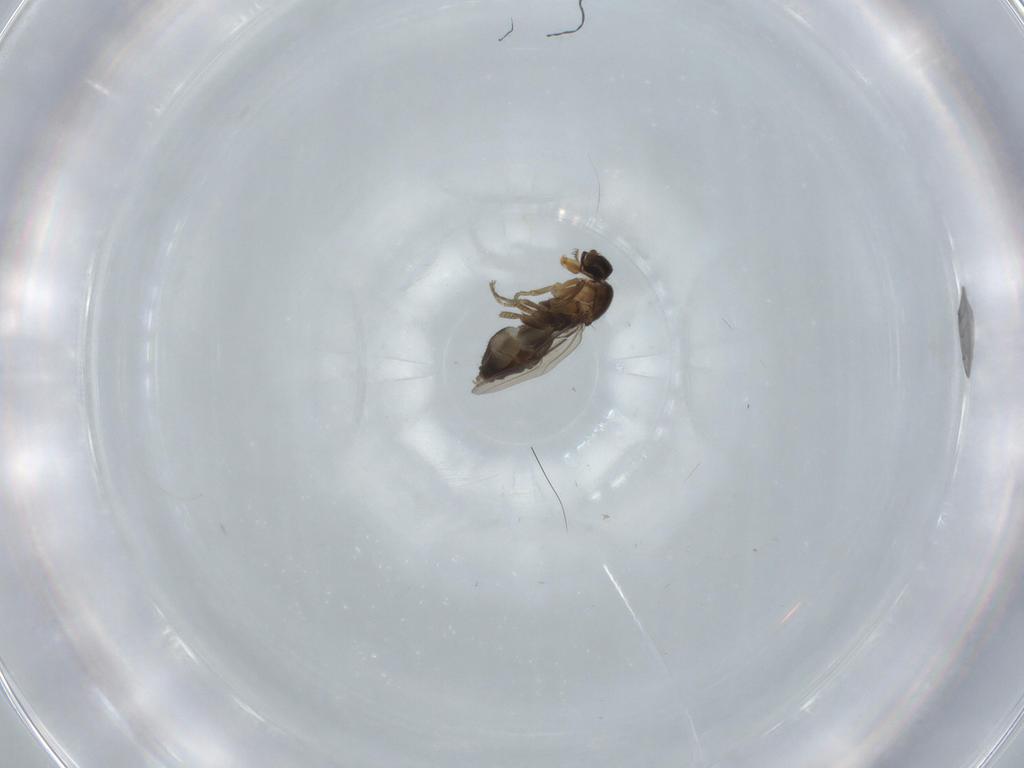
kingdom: Animalia
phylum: Arthropoda
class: Insecta
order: Diptera
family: Phoridae
